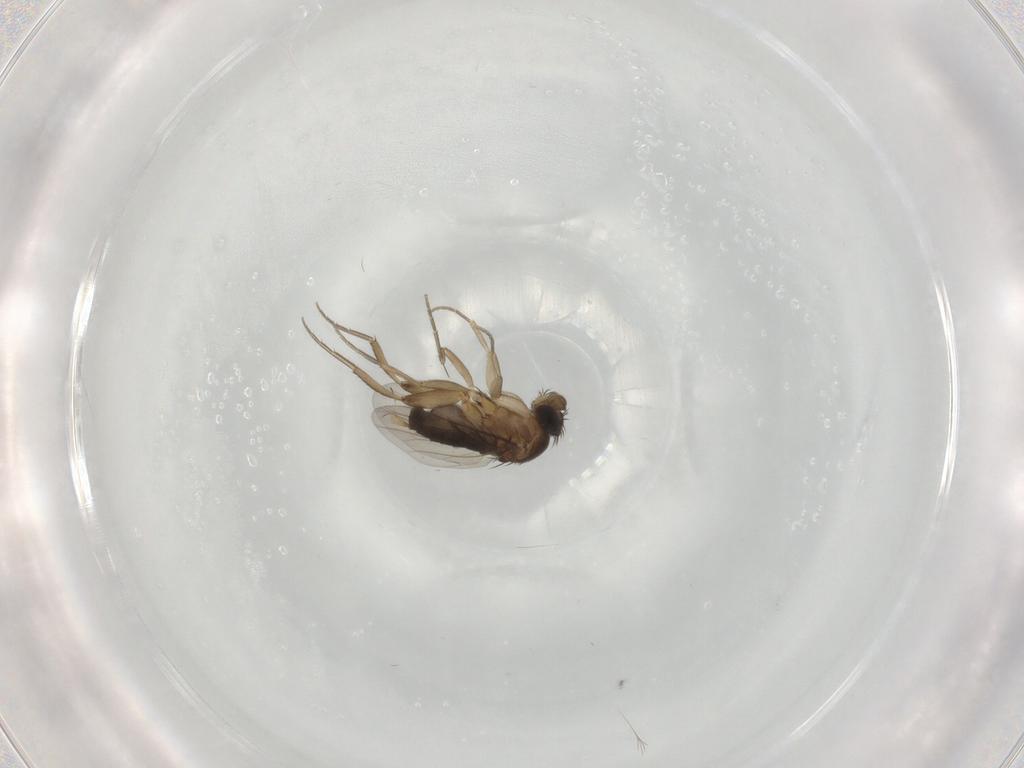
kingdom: Animalia
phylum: Arthropoda
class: Insecta
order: Diptera
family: Phoridae
